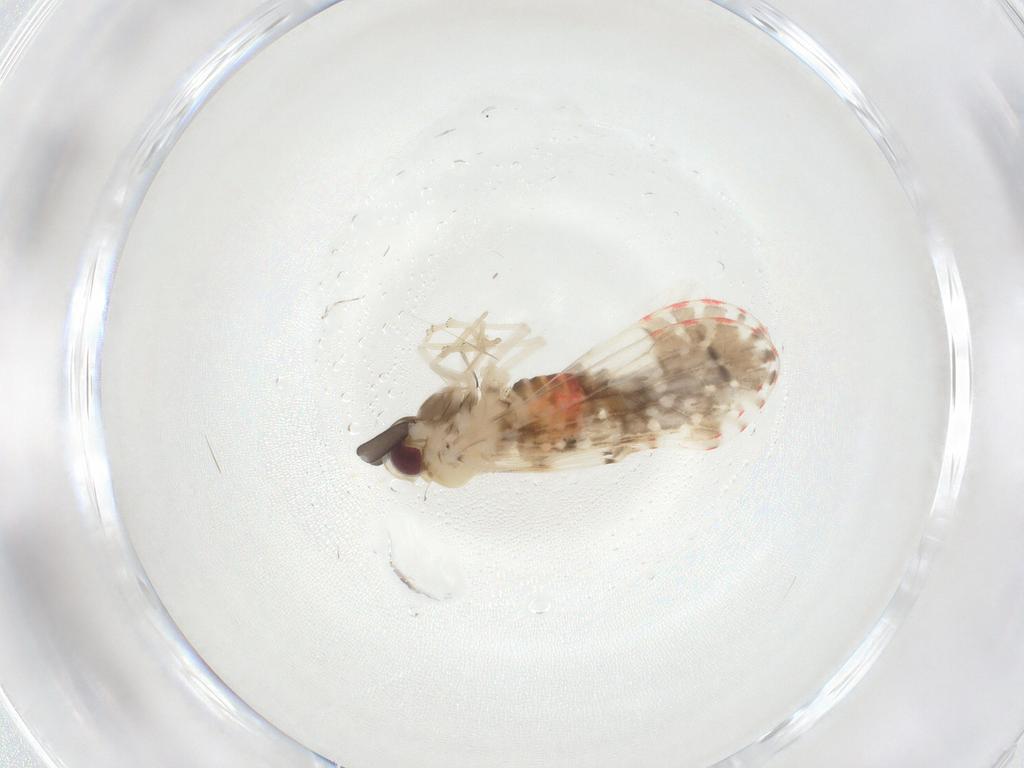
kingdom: Animalia
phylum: Arthropoda
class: Insecta
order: Hemiptera
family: Derbidae
